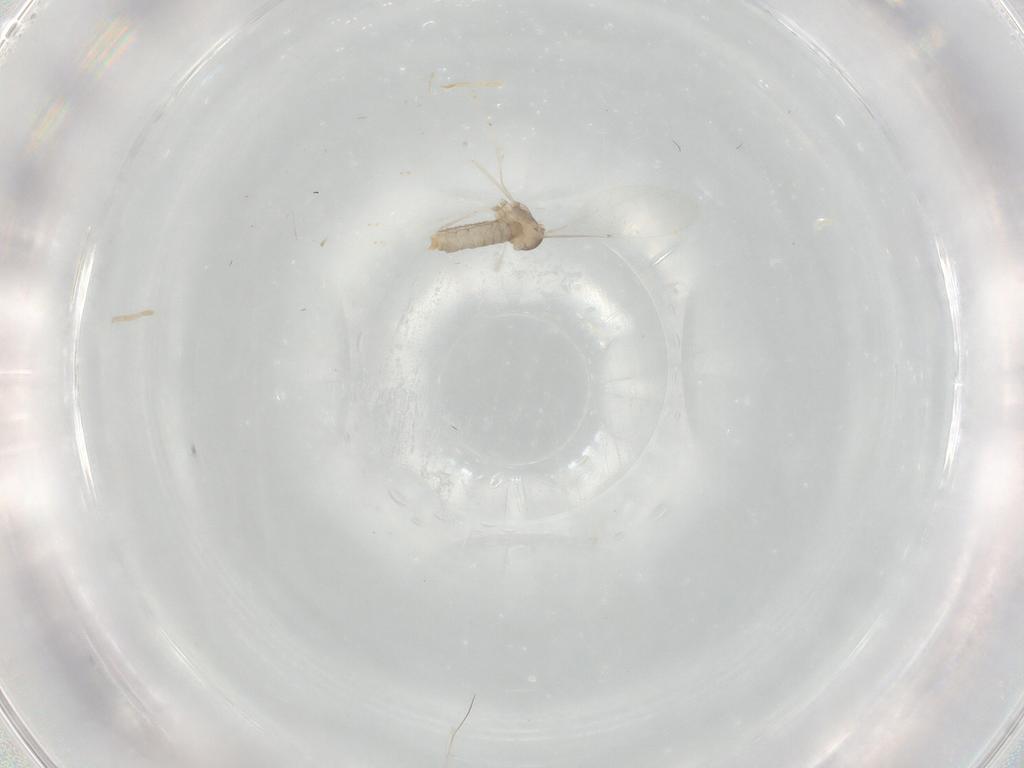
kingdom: Animalia
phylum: Arthropoda
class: Insecta
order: Diptera
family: Cecidomyiidae
